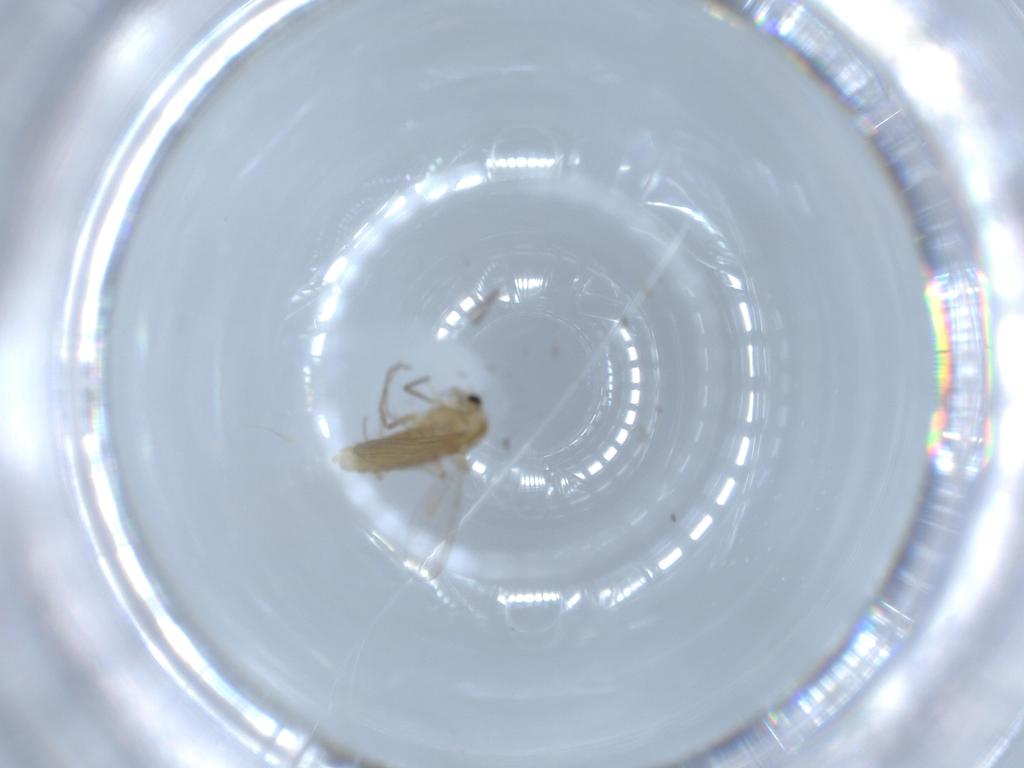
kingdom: Animalia
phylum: Arthropoda
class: Insecta
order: Diptera
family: Chironomidae
